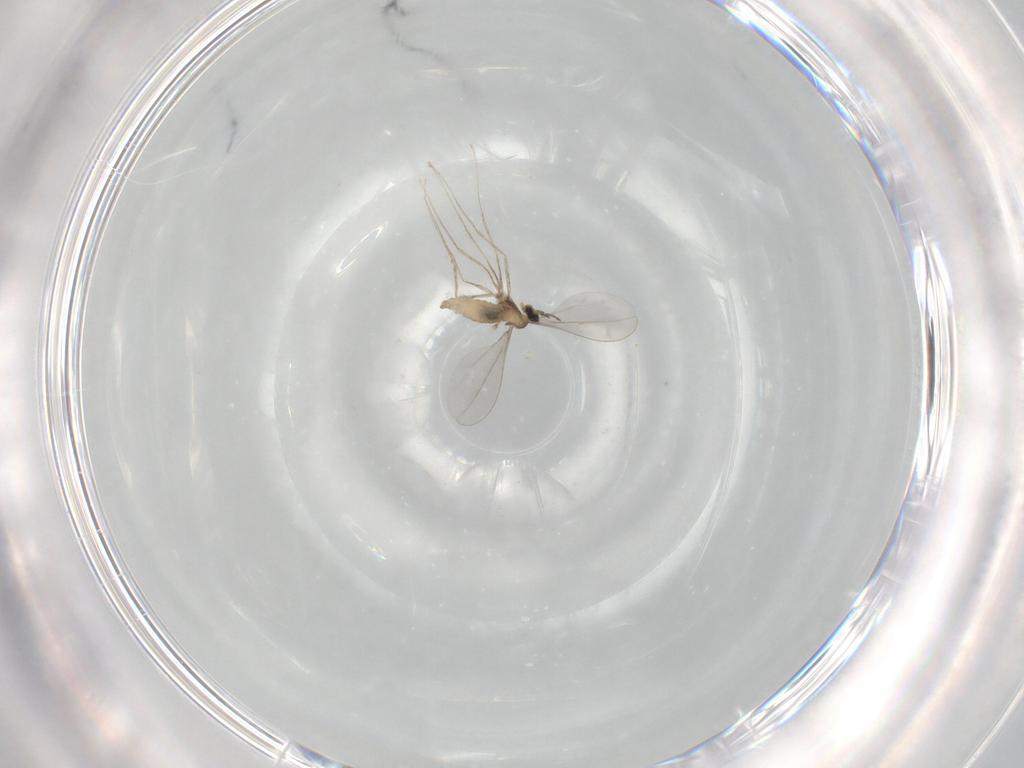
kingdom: Animalia
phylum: Arthropoda
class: Insecta
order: Diptera
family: Cecidomyiidae
